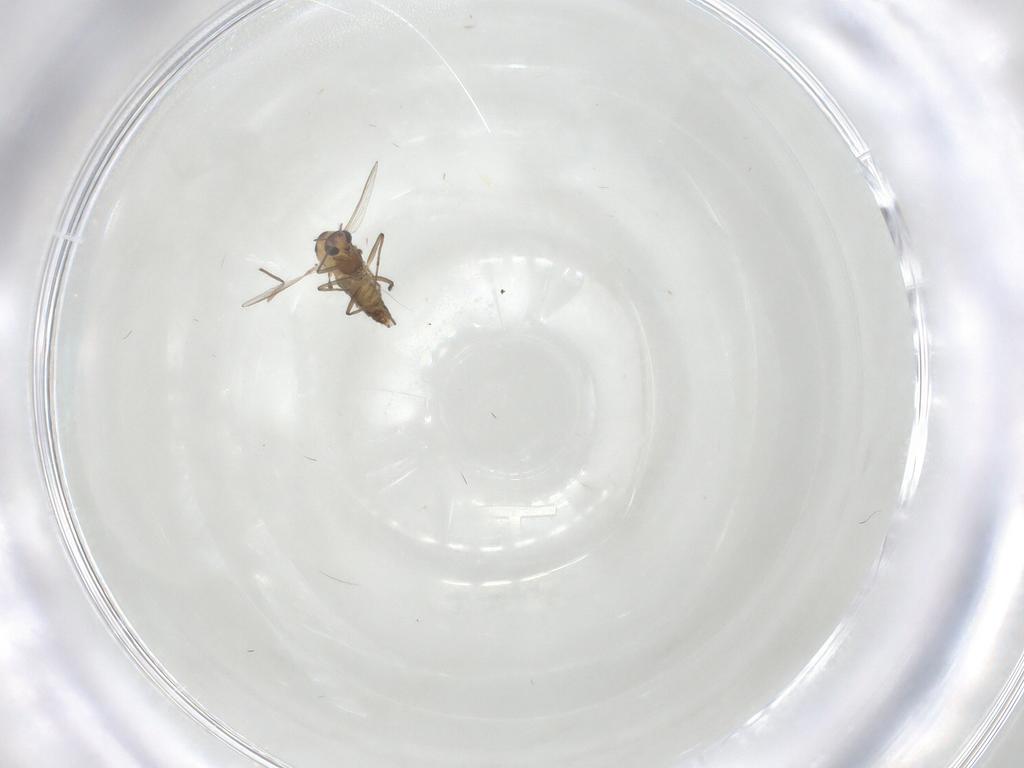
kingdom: Animalia
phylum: Arthropoda
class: Insecta
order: Diptera
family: Chironomidae
